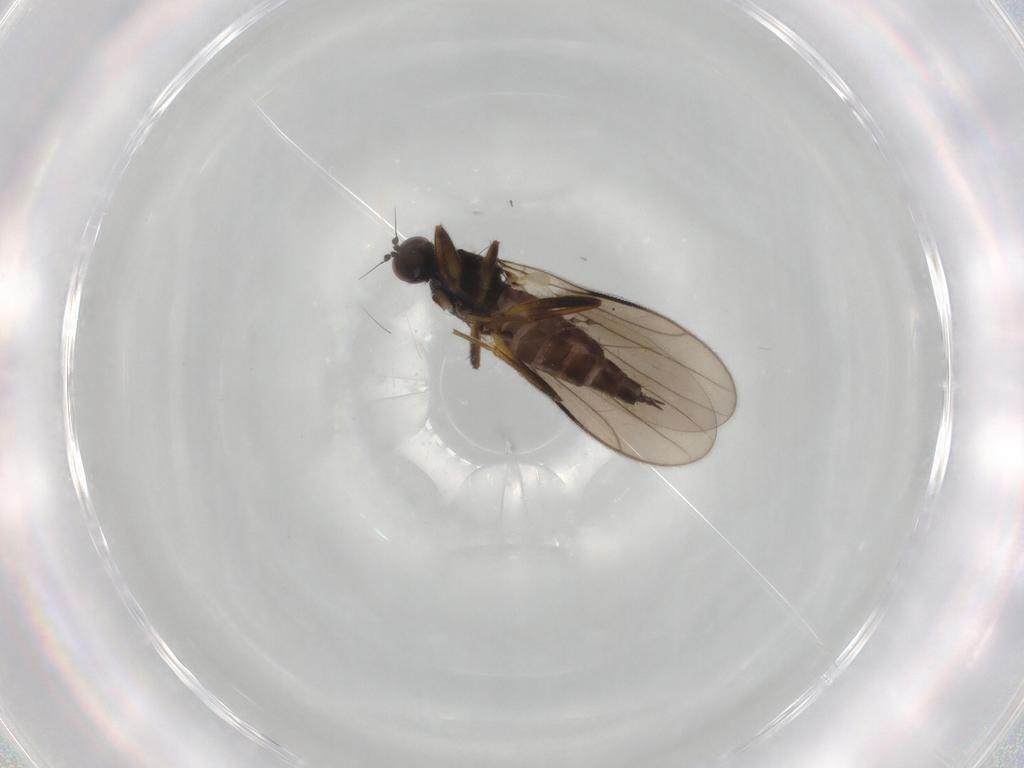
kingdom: Animalia
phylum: Arthropoda
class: Insecta
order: Diptera
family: Hybotidae
